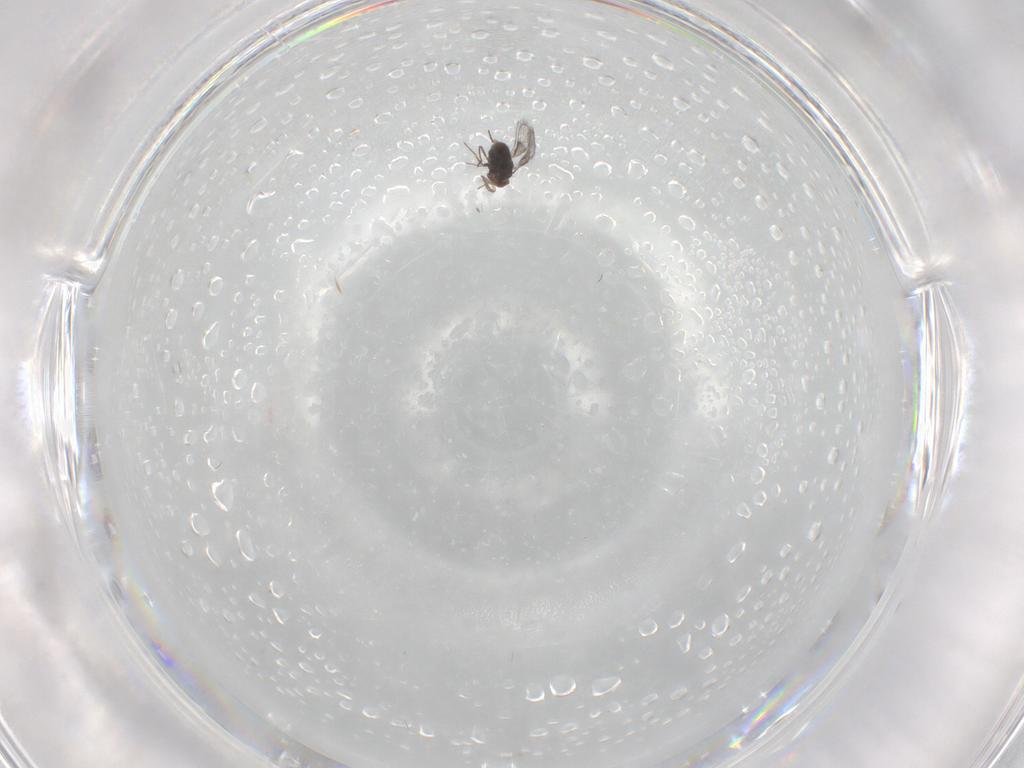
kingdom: Animalia
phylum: Arthropoda
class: Insecta
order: Hymenoptera
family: Trichogrammatidae
